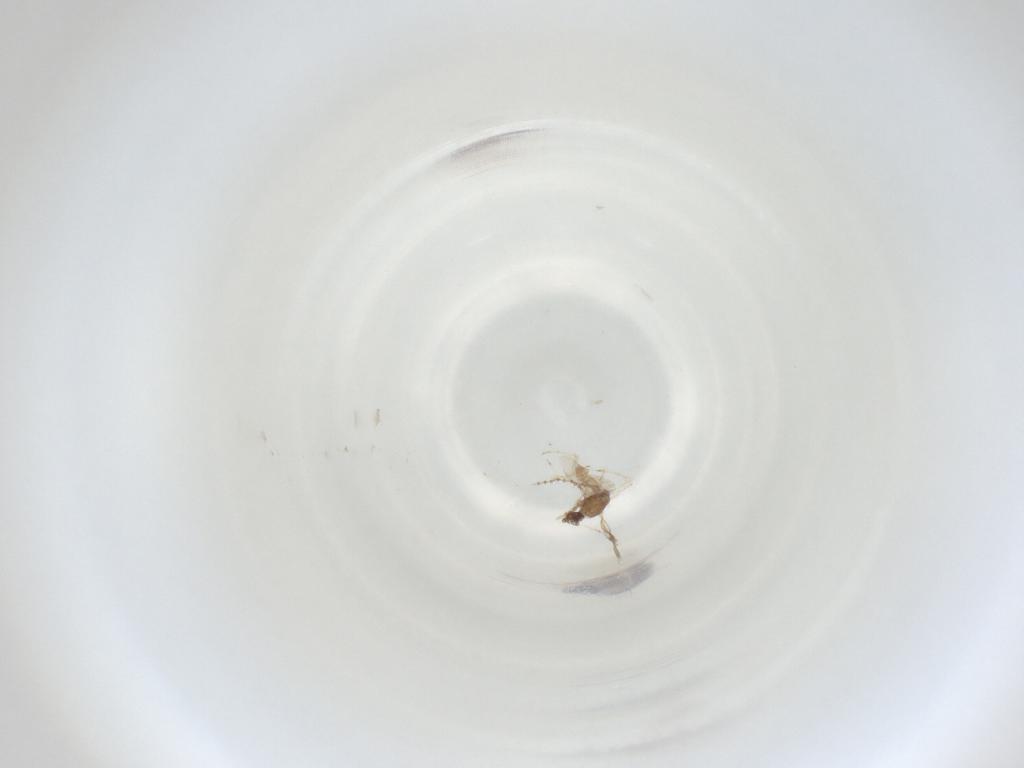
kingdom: Animalia
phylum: Arthropoda
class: Insecta
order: Diptera
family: Cecidomyiidae
